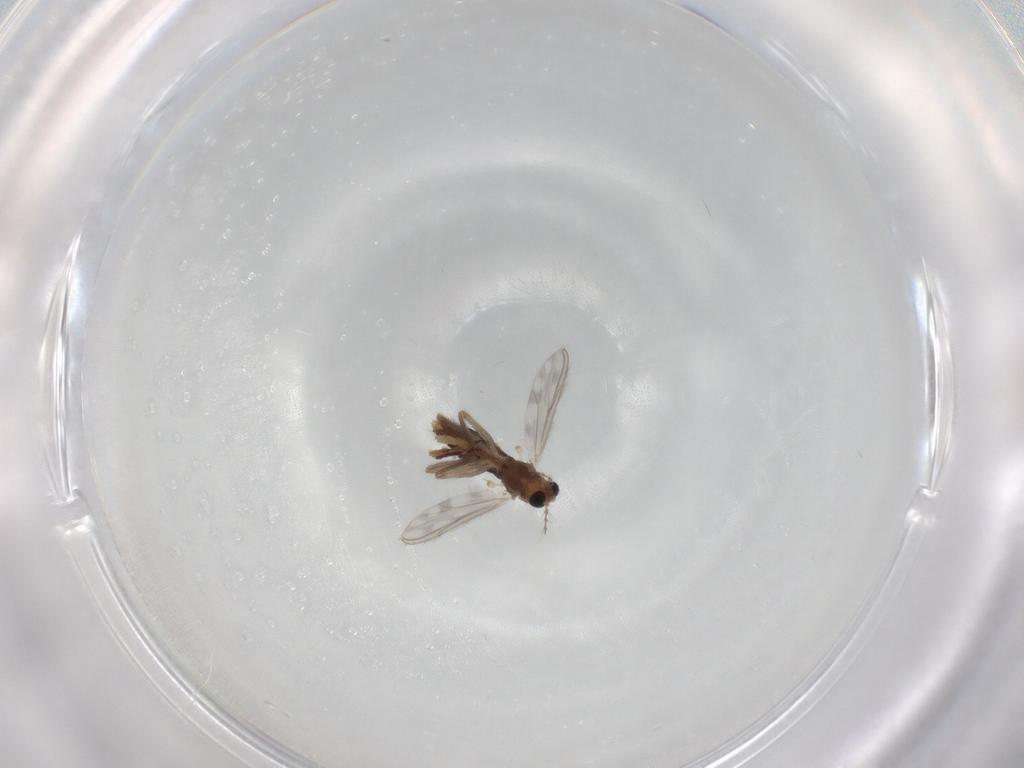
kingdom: Animalia
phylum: Arthropoda
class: Insecta
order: Diptera
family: Chironomidae
